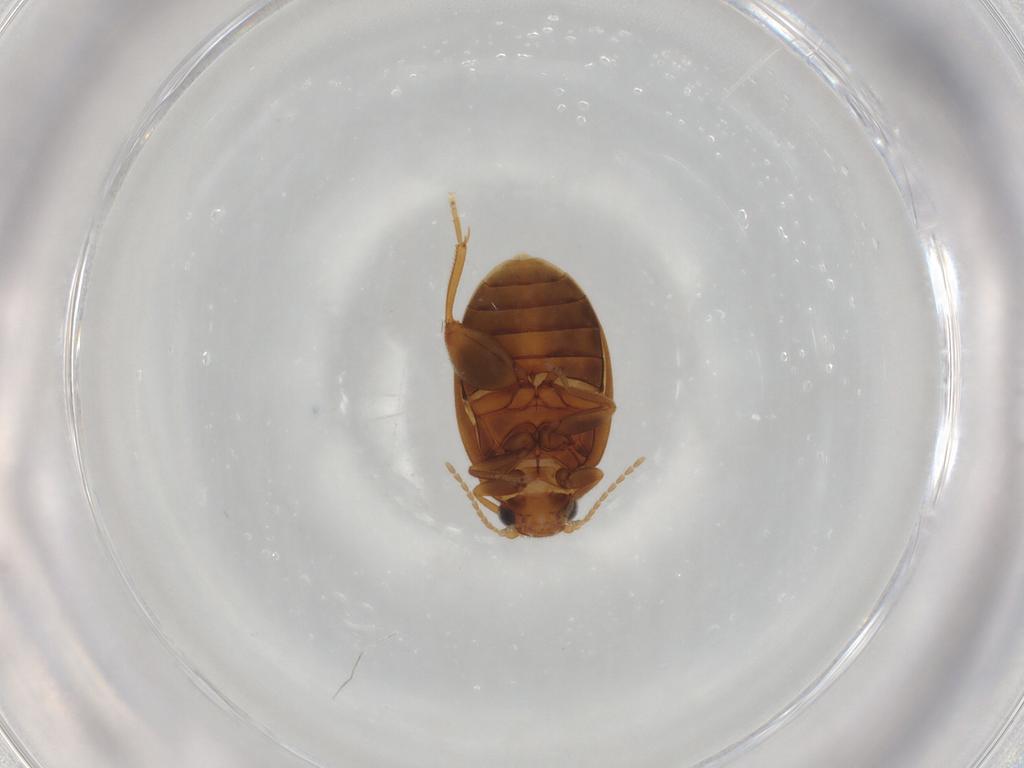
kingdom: Animalia
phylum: Arthropoda
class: Insecta
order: Coleoptera
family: Scirtidae
